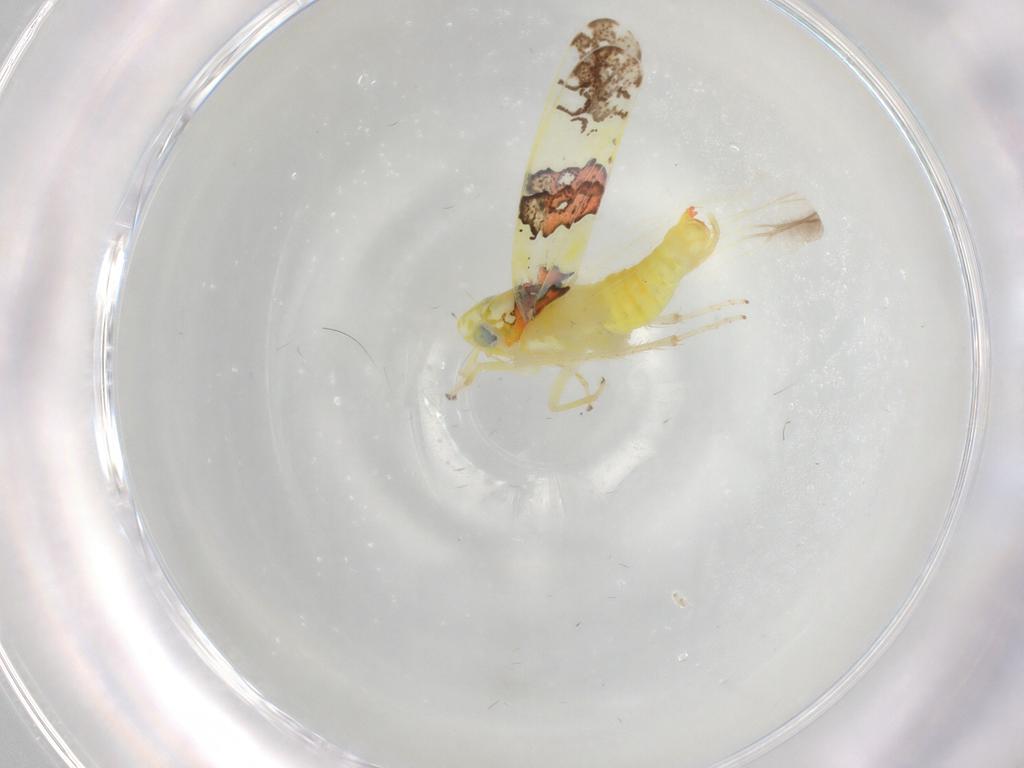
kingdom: Animalia
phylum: Arthropoda
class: Insecta
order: Hemiptera
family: Cicadellidae
